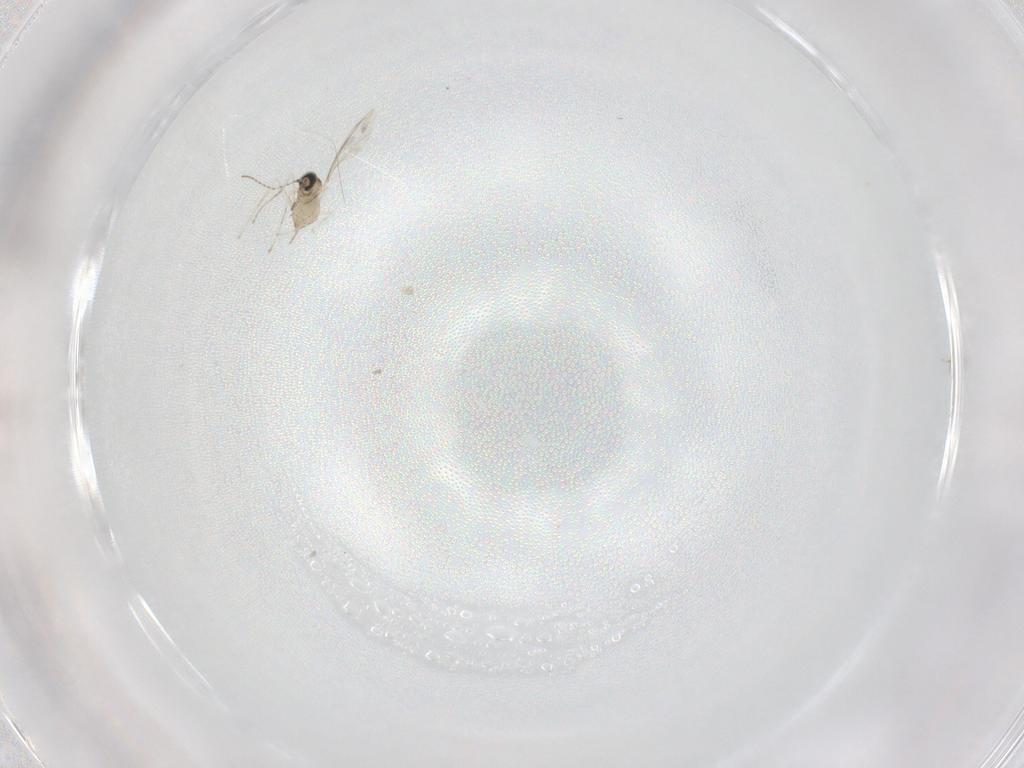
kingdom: Animalia
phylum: Arthropoda
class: Insecta
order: Diptera
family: Cecidomyiidae
